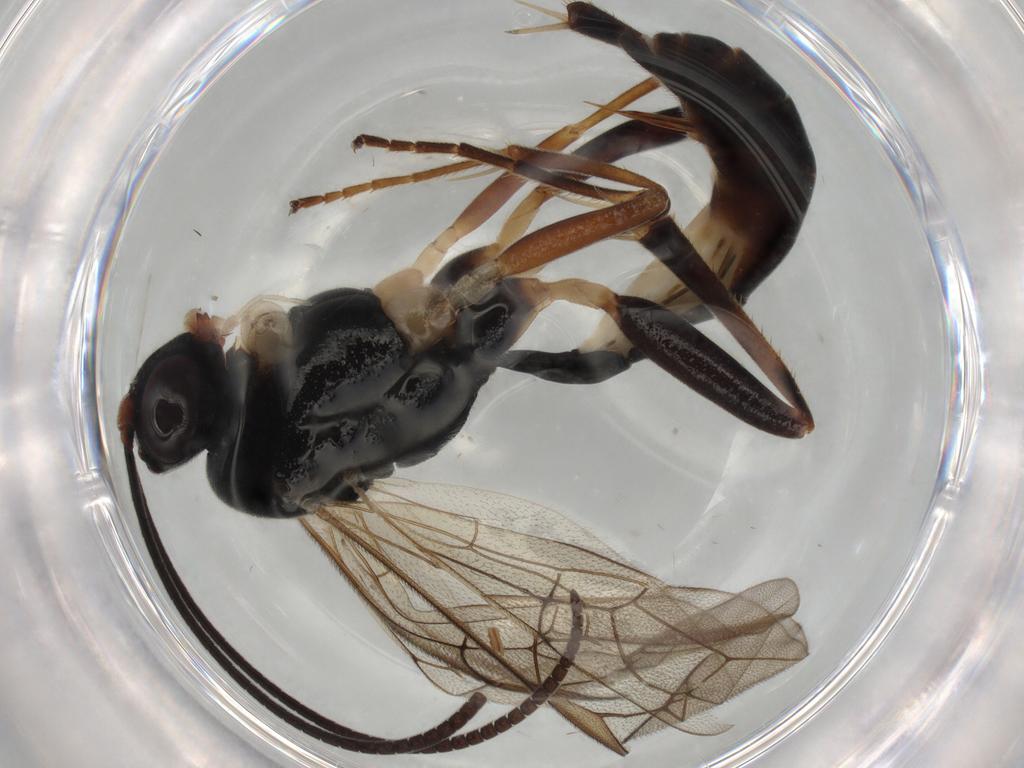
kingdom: Animalia
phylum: Arthropoda
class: Insecta
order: Hymenoptera
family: Ichneumonidae
